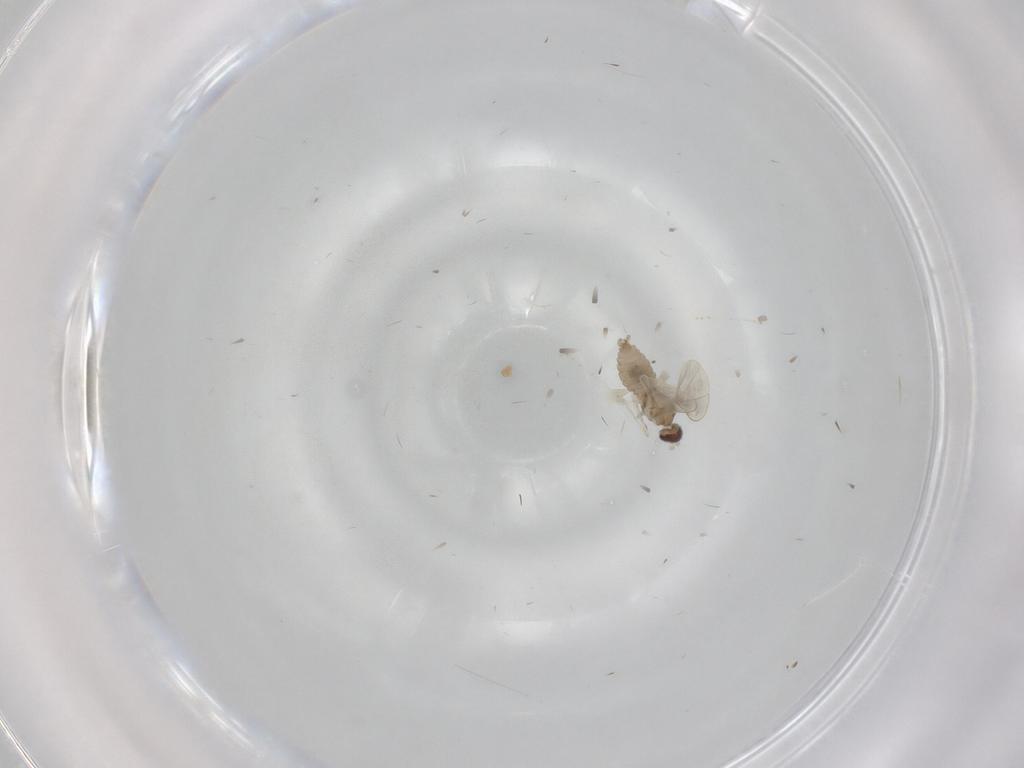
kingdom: Animalia
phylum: Arthropoda
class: Insecta
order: Diptera
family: Cecidomyiidae
